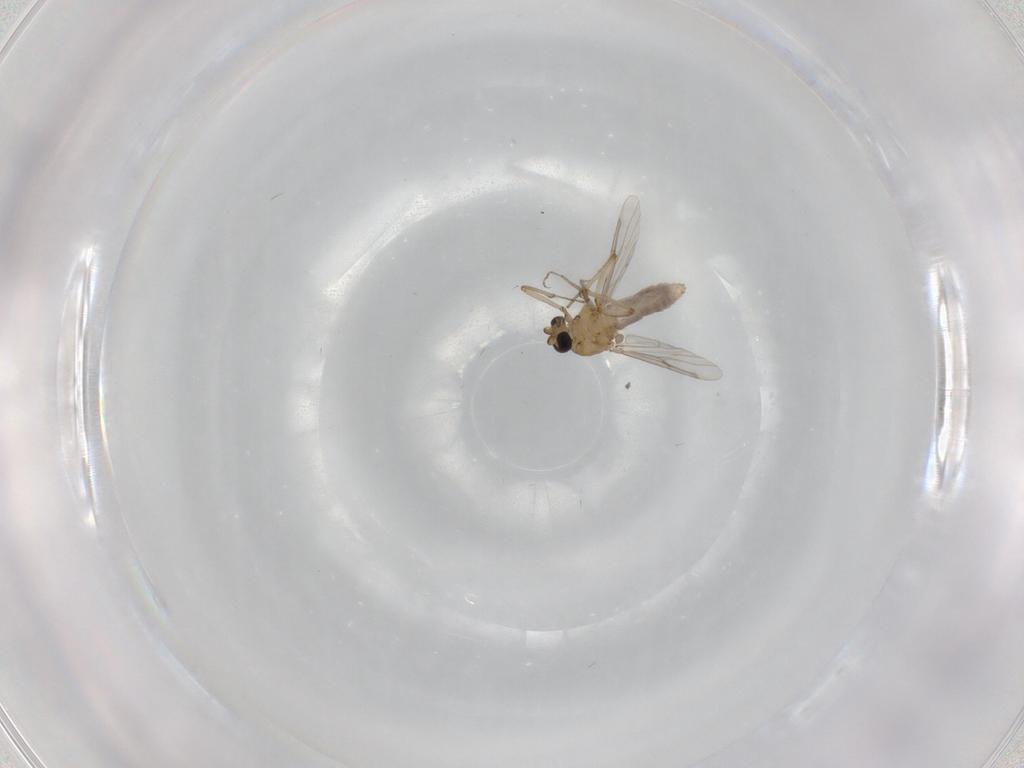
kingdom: Animalia
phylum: Arthropoda
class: Insecta
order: Diptera
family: Ceratopogonidae
